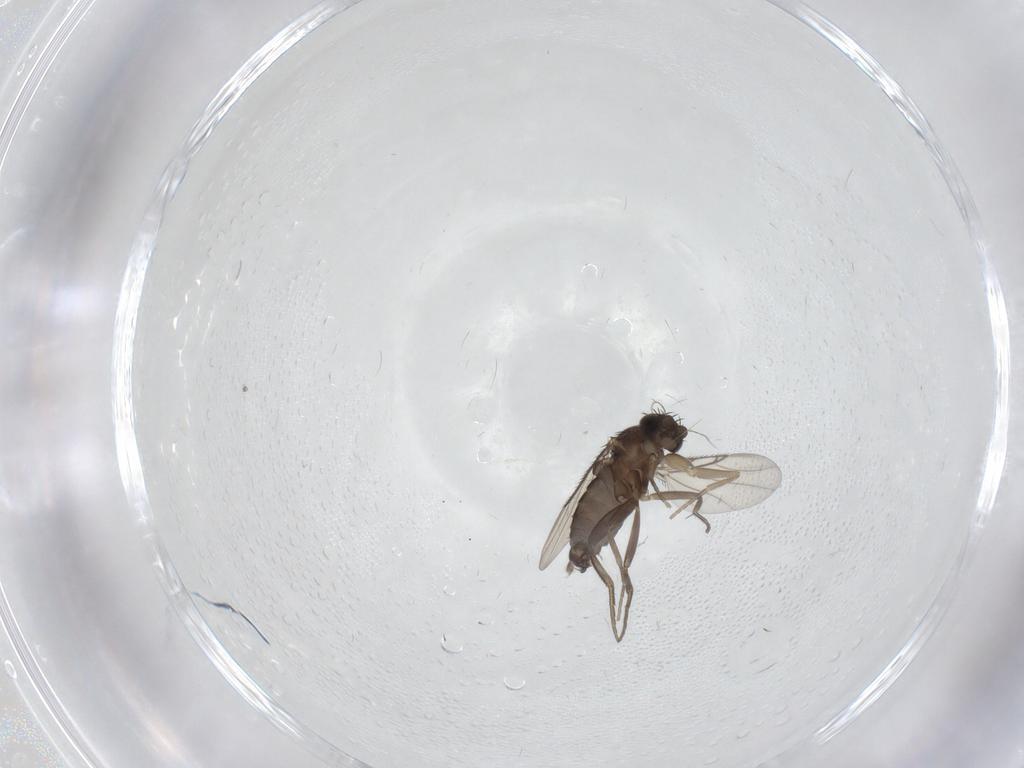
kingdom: Animalia
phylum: Arthropoda
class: Insecta
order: Diptera
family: Phoridae
